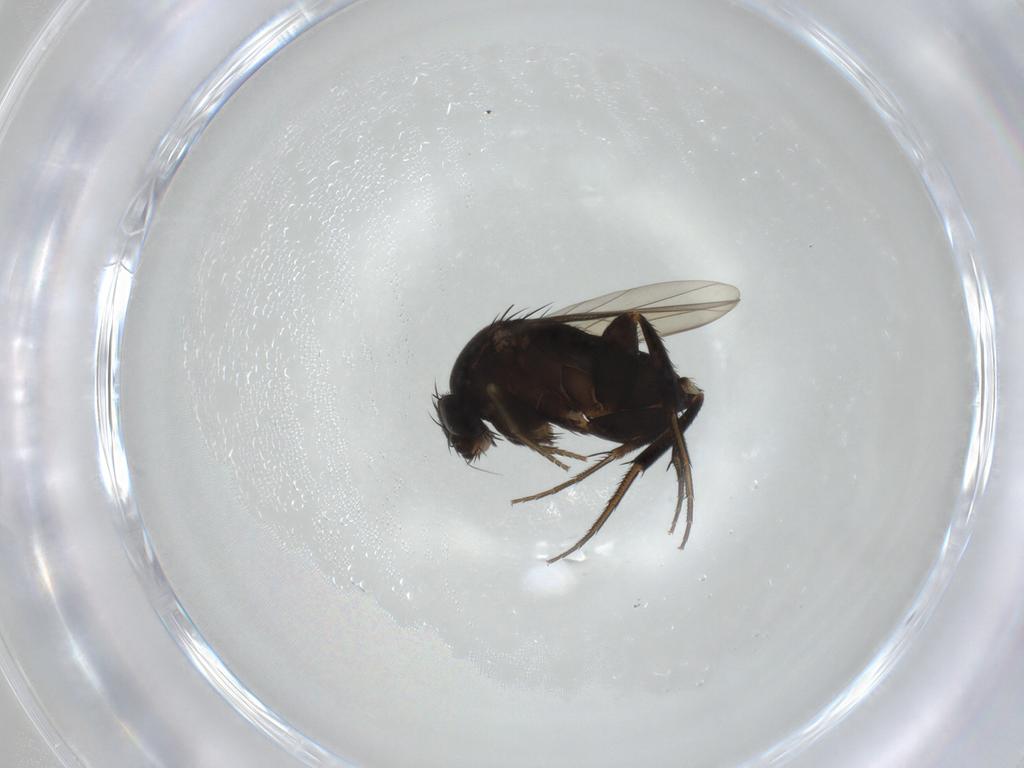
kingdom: Animalia
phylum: Arthropoda
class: Insecta
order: Diptera
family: Phoridae
